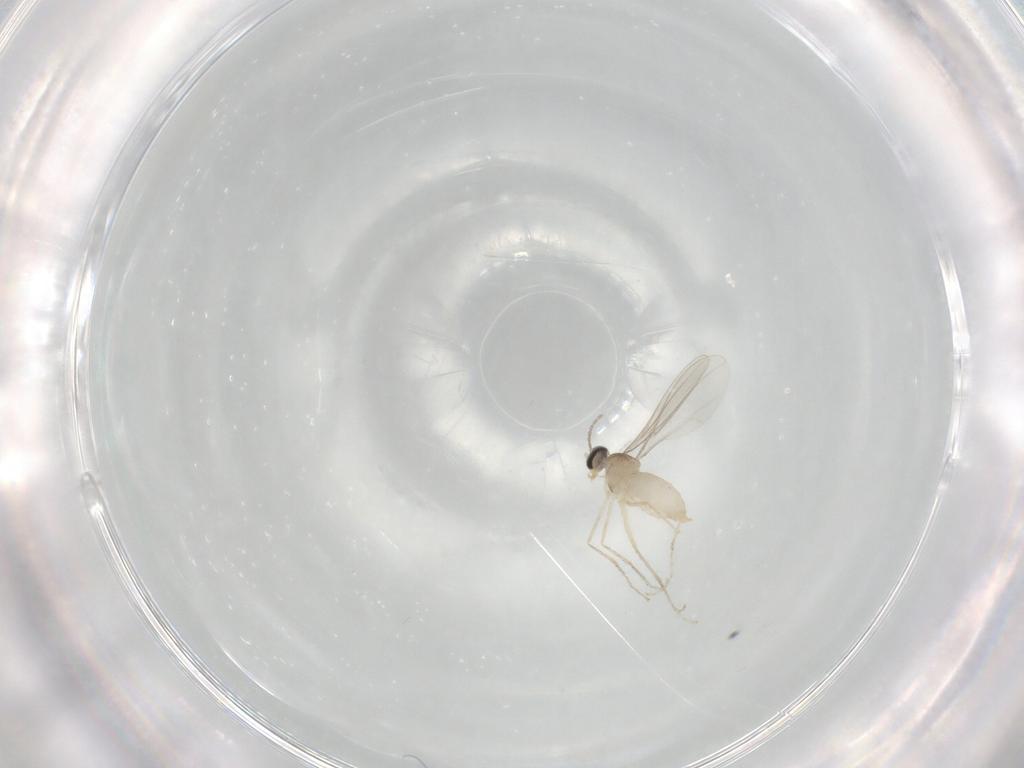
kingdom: Animalia
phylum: Arthropoda
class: Insecta
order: Diptera
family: Cecidomyiidae
